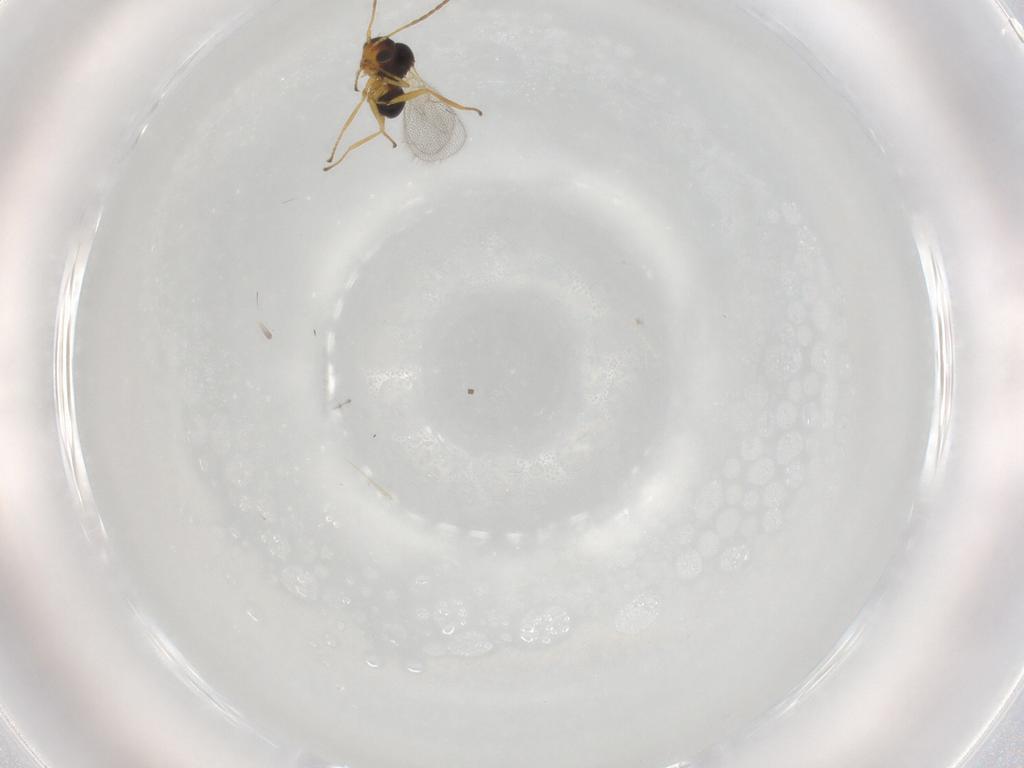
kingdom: Animalia
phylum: Arthropoda
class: Insecta
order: Hymenoptera
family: Figitidae
